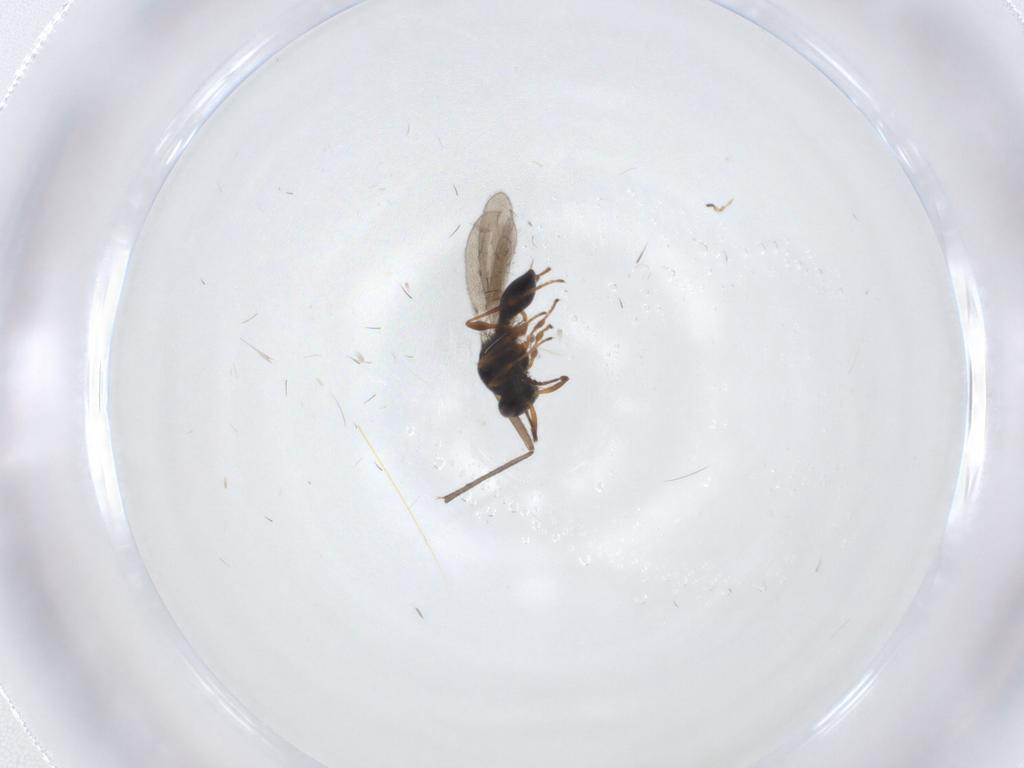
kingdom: Animalia
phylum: Arthropoda
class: Insecta
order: Hymenoptera
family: Platygastridae
